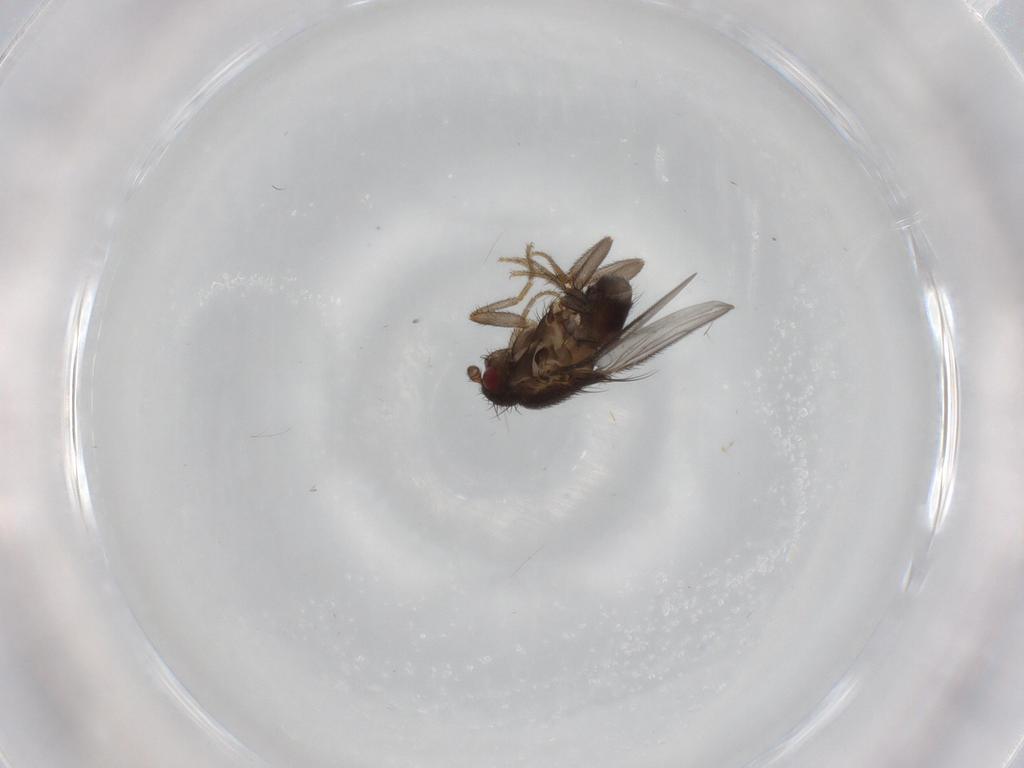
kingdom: Animalia
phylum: Arthropoda
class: Insecta
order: Diptera
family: Sphaeroceridae
